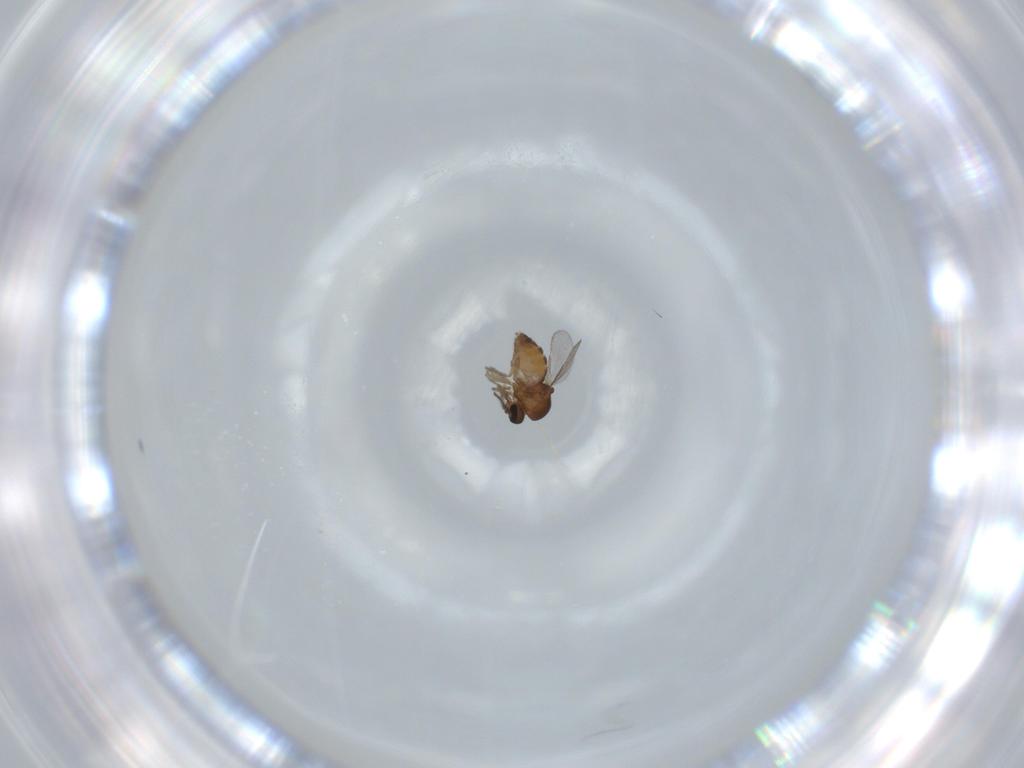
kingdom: Animalia
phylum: Arthropoda
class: Insecta
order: Diptera
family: Ceratopogonidae
